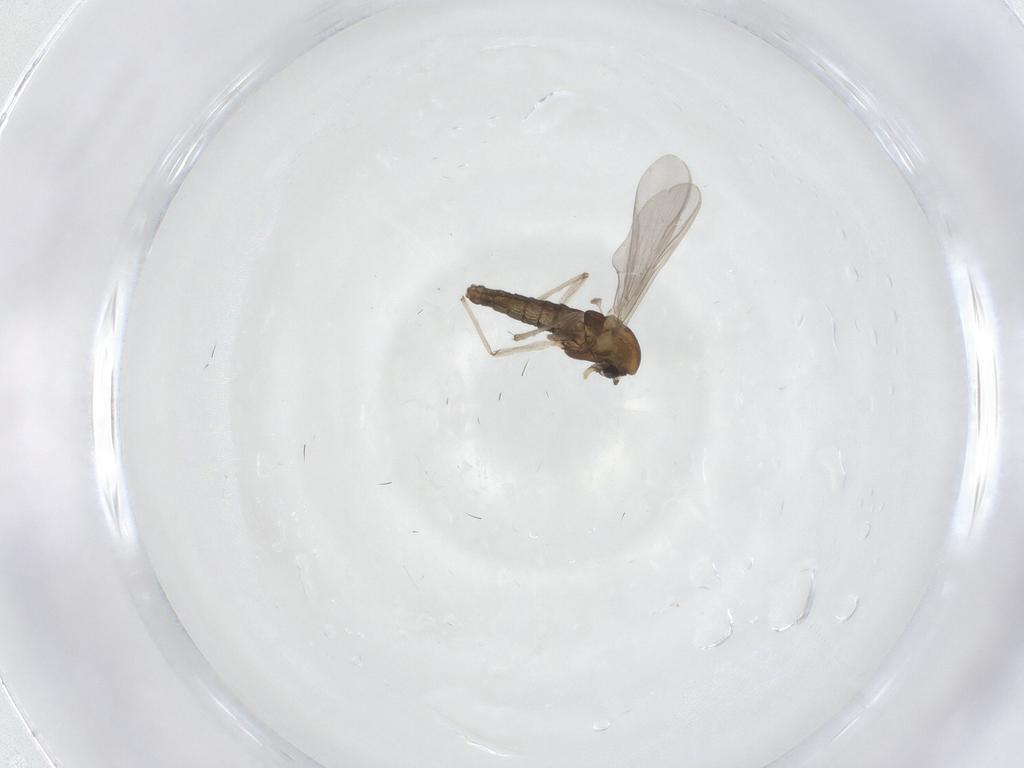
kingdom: Animalia
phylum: Arthropoda
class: Insecta
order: Diptera
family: Chironomidae
